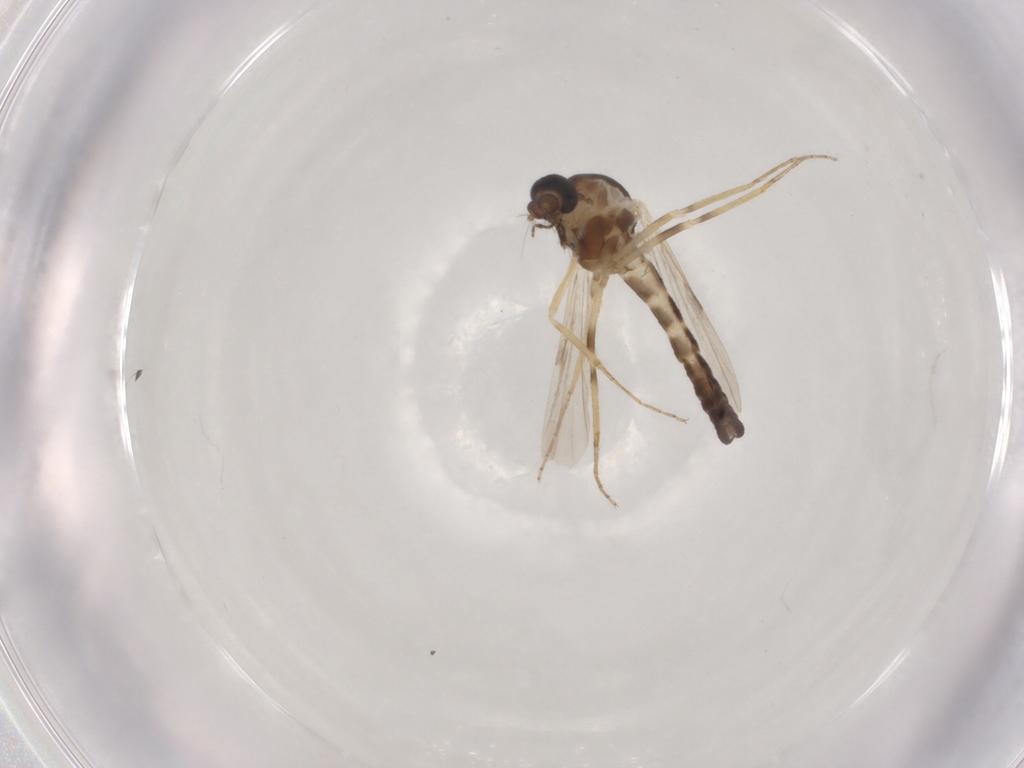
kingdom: Animalia
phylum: Arthropoda
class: Insecta
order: Diptera
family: Ceratopogonidae
